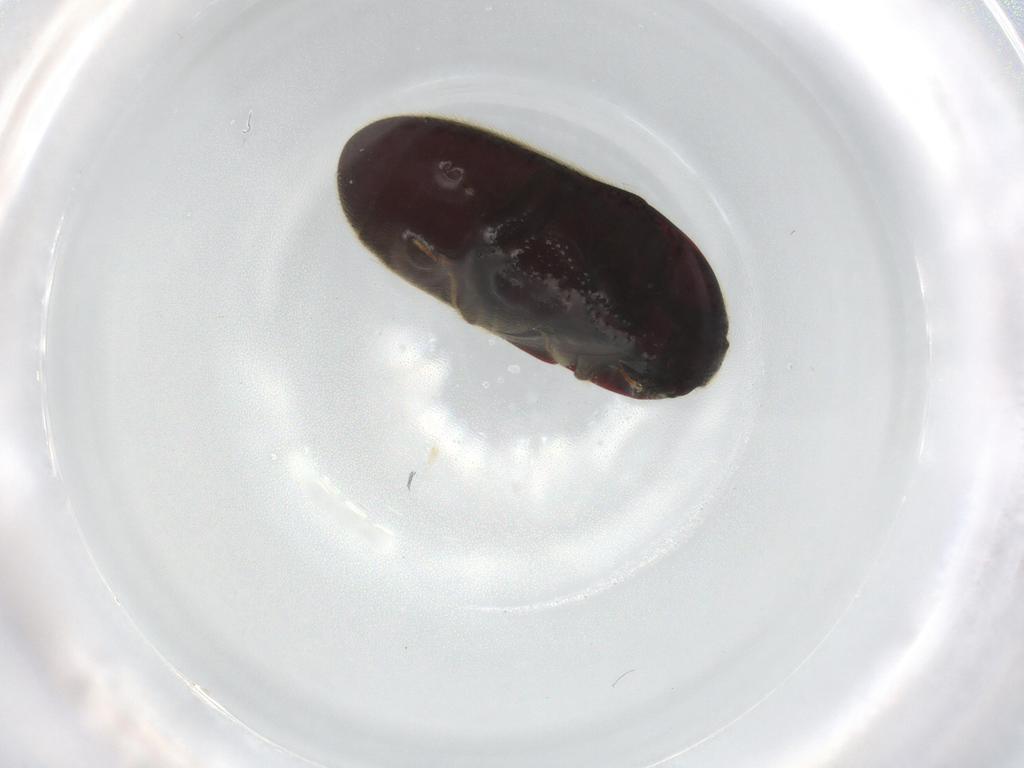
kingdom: Animalia
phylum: Arthropoda
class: Insecta
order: Coleoptera
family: Throscidae
